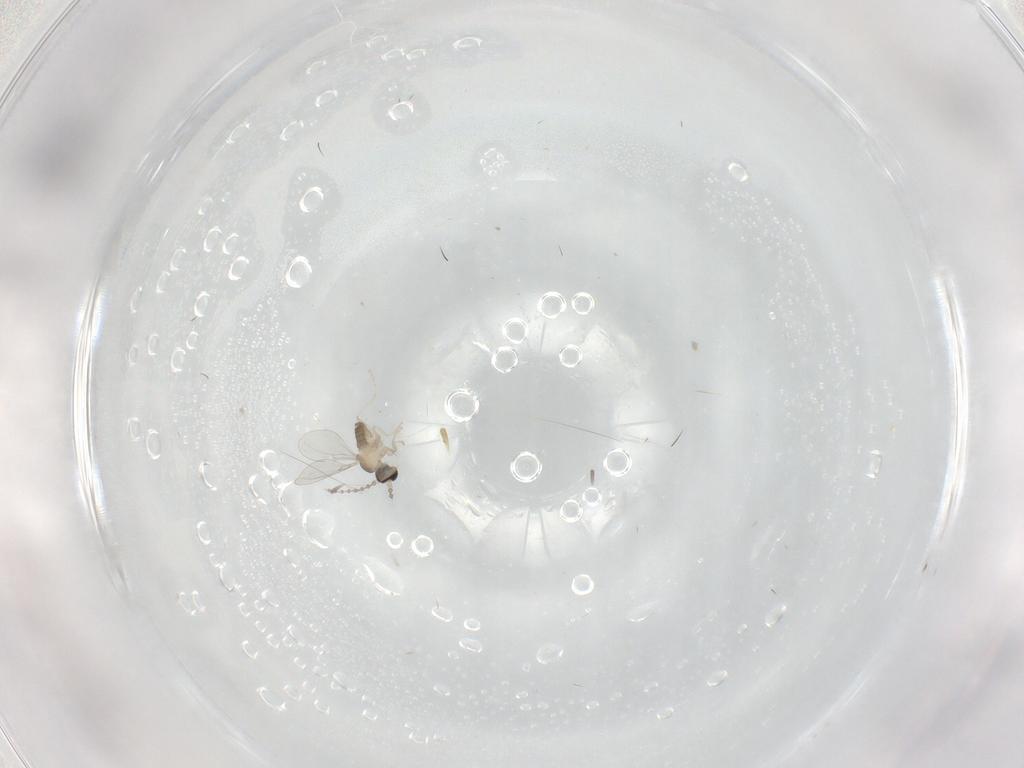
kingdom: Animalia
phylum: Arthropoda
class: Insecta
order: Diptera
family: Cecidomyiidae
